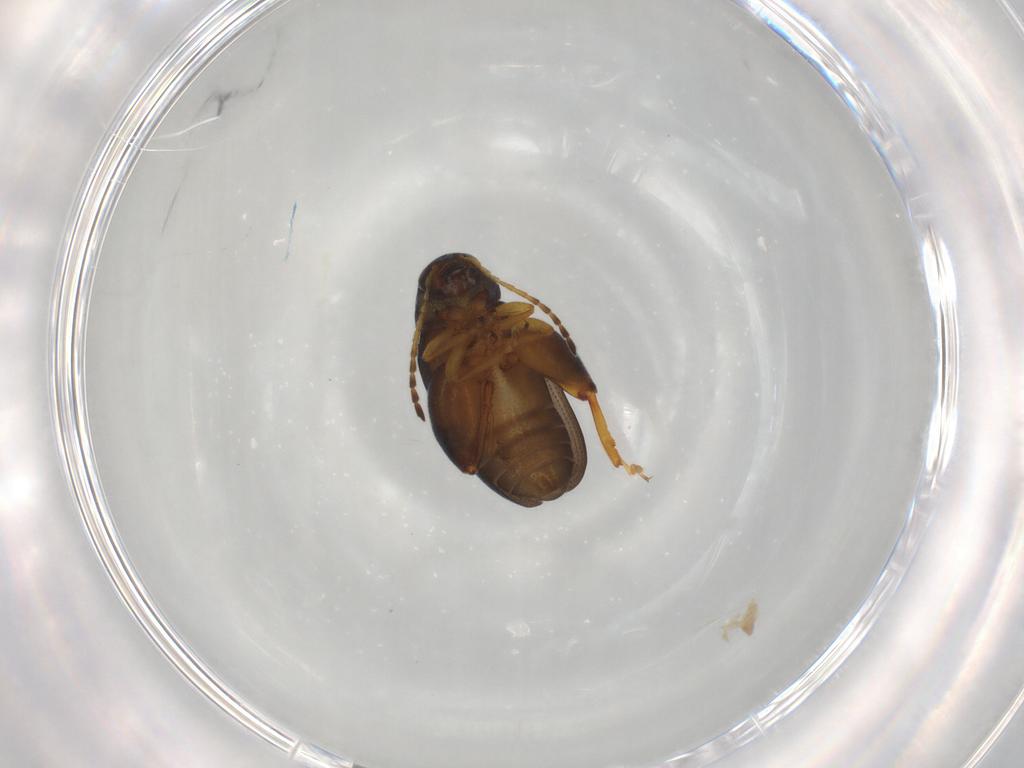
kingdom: Animalia
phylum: Arthropoda
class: Insecta
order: Coleoptera
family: Chrysomelidae
